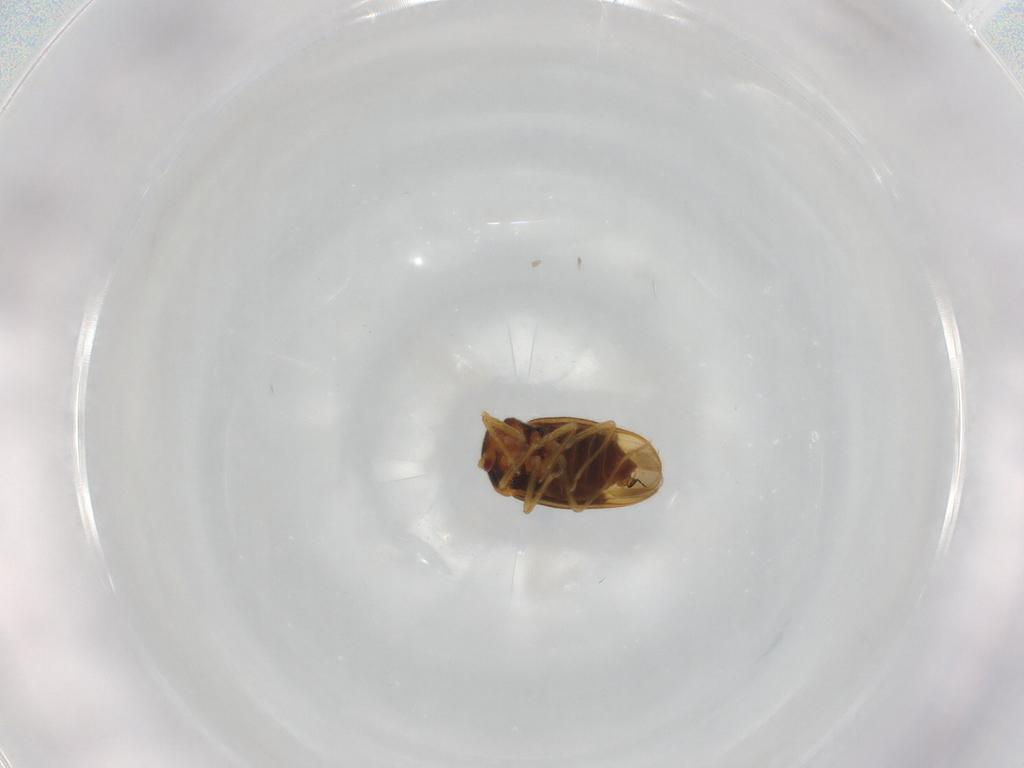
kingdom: Animalia
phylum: Arthropoda
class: Insecta
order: Hemiptera
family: Schizopteridae
